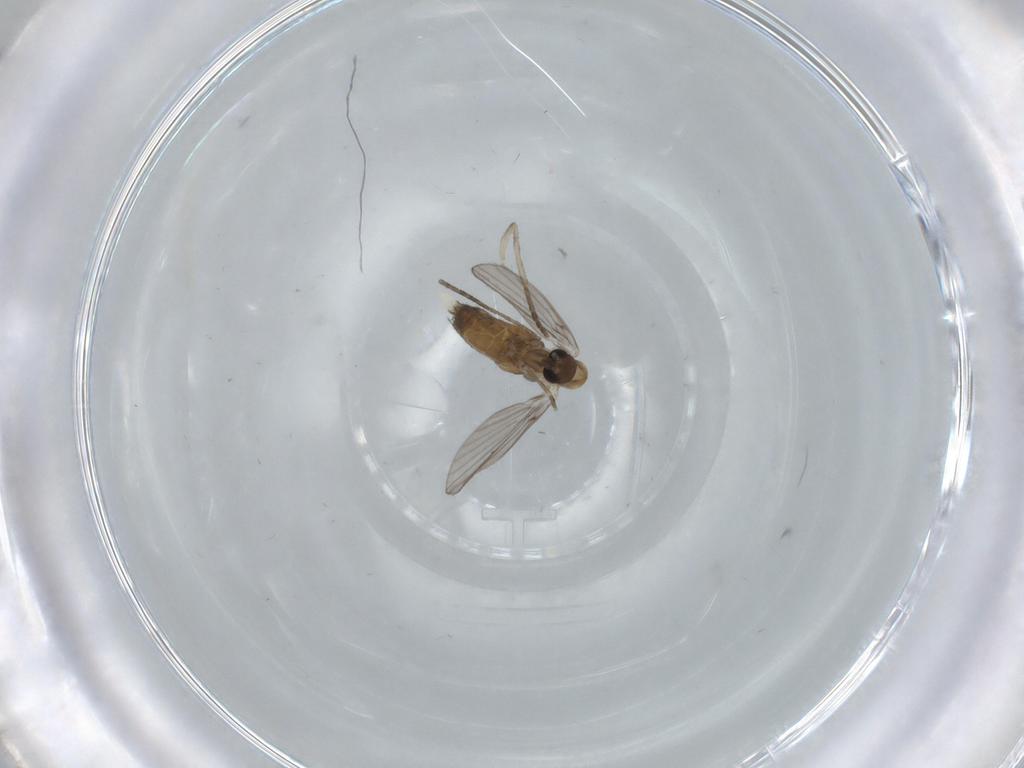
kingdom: Animalia
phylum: Arthropoda
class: Insecta
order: Diptera
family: Psychodidae
